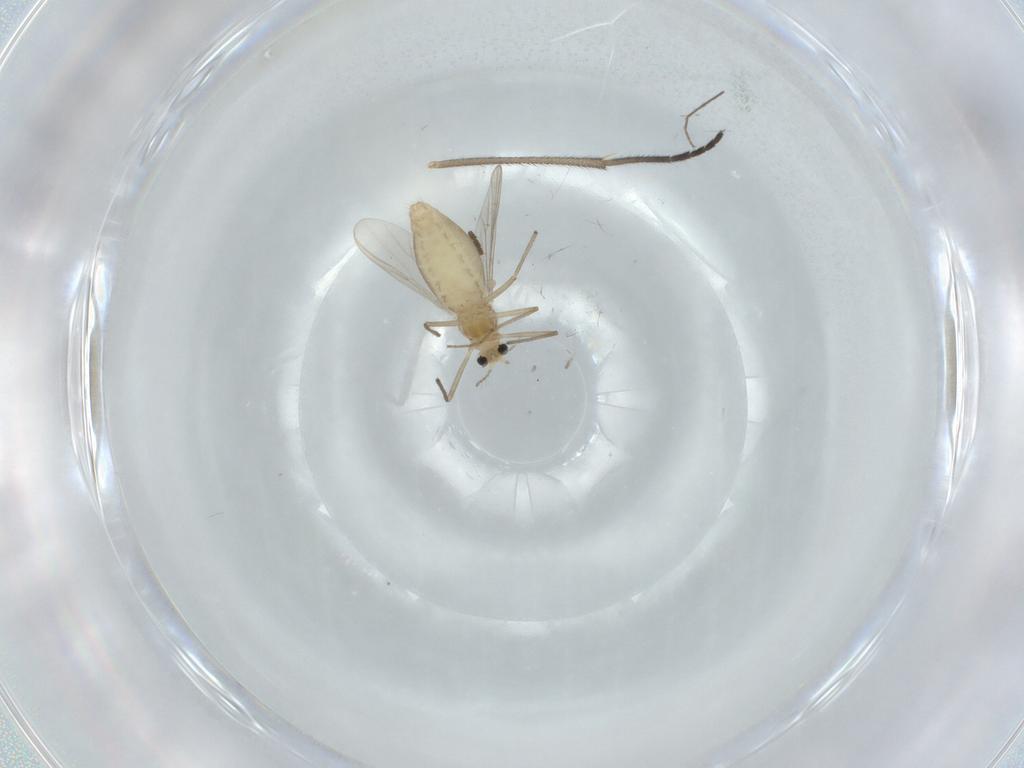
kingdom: Animalia
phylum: Arthropoda
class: Insecta
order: Diptera
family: Chironomidae
